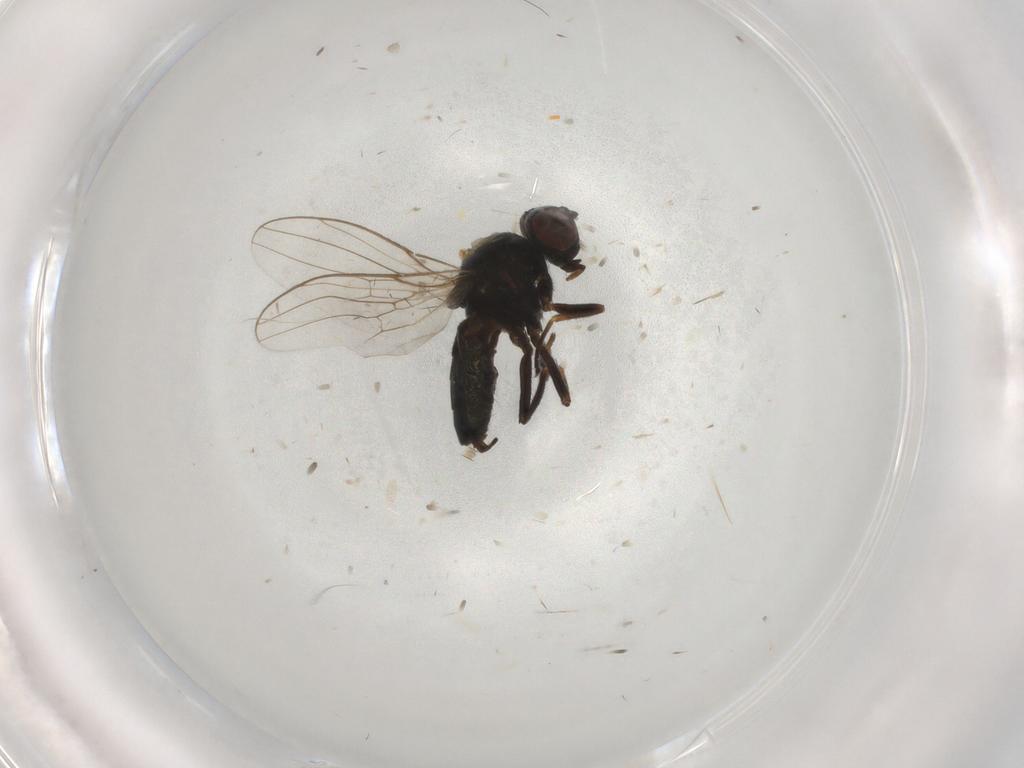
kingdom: Animalia
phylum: Arthropoda
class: Insecta
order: Diptera
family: Chloropidae
